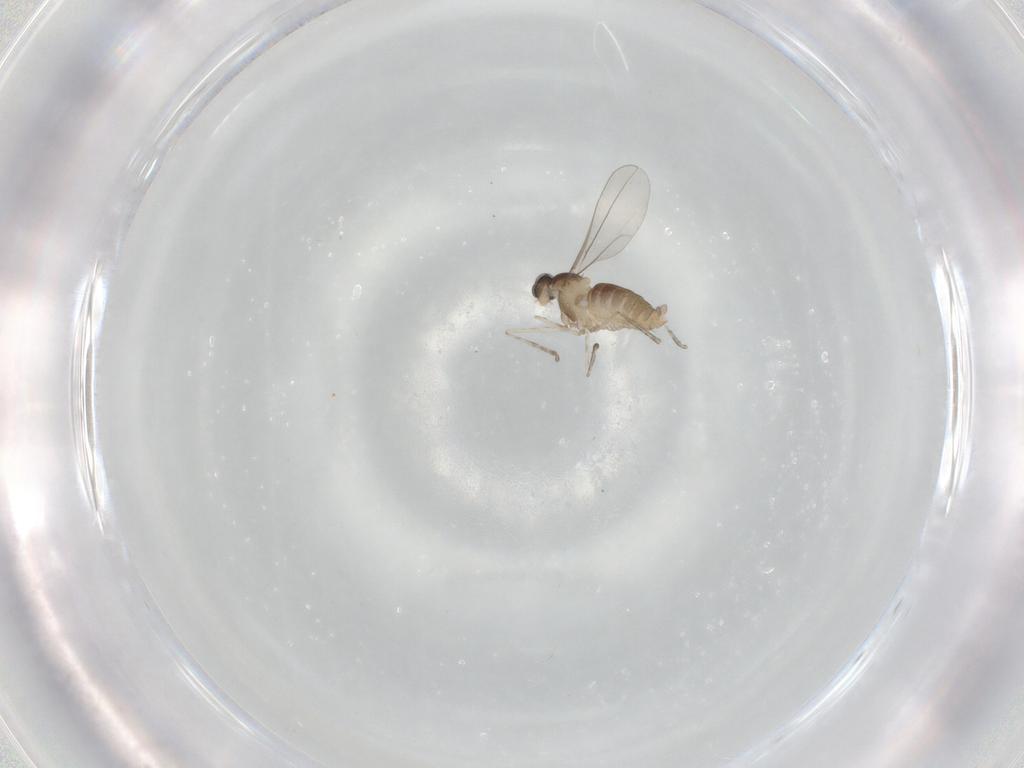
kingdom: Animalia
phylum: Arthropoda
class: Insecta
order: Diptera
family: Cecidomyiidae
